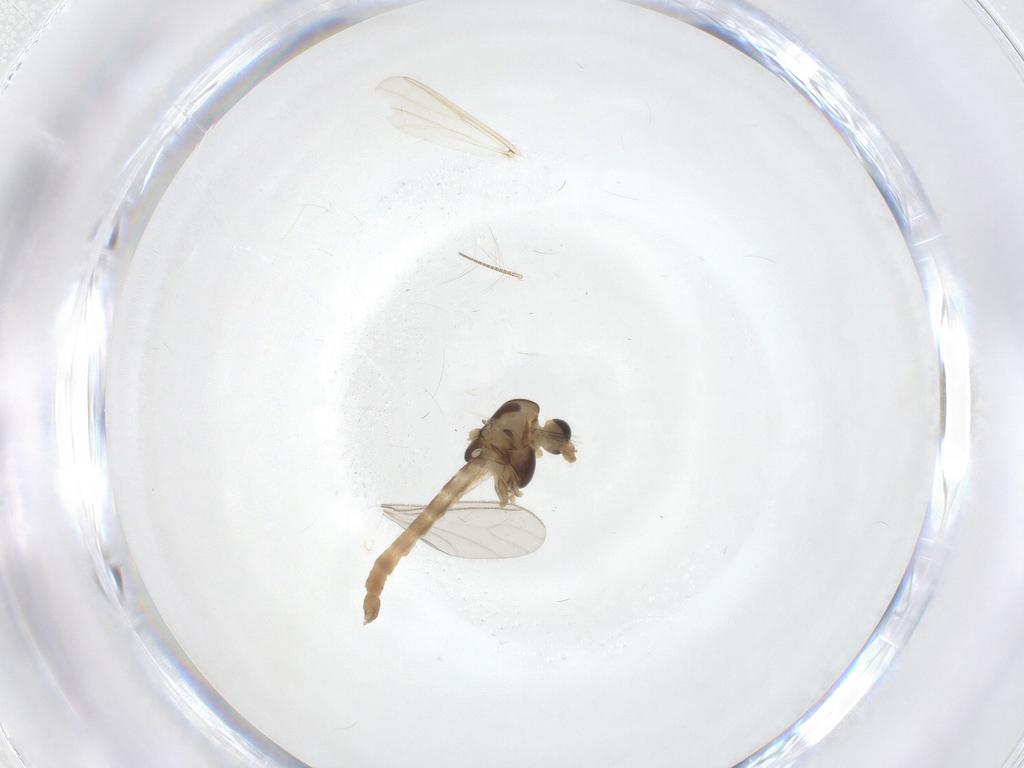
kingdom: Animalia
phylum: Arthropoda
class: Insecta
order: Diptera
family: Chironomidae
